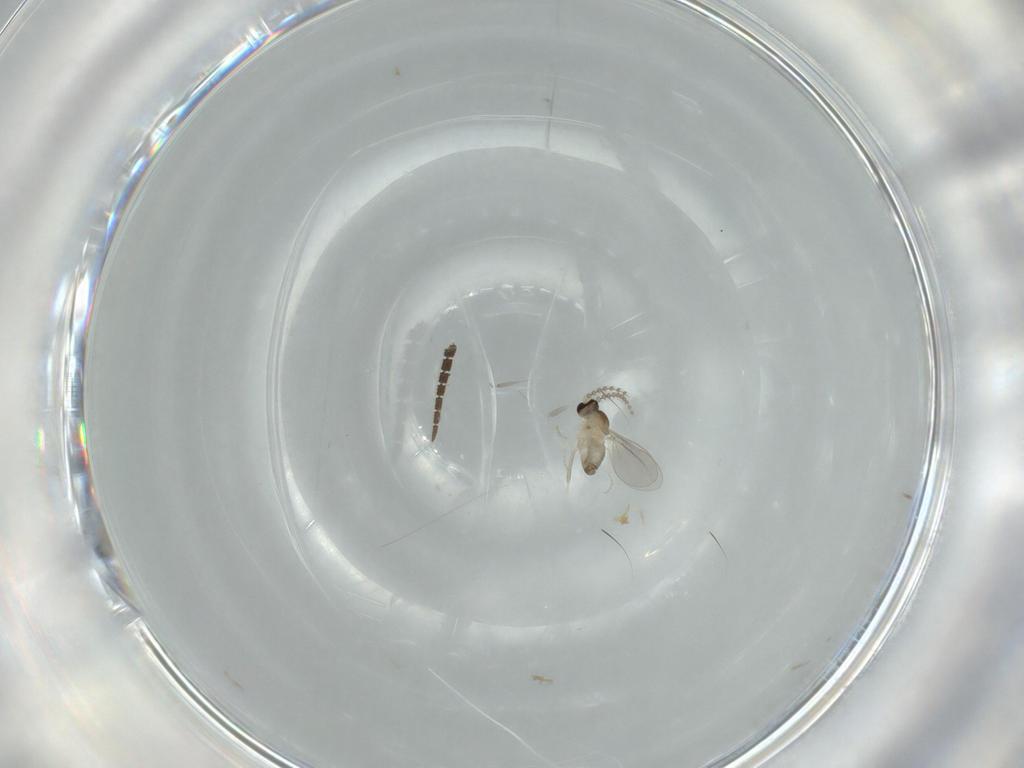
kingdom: Animalia
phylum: Arthropoda
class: Insecta
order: Diptera
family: Cecidomyiidae
